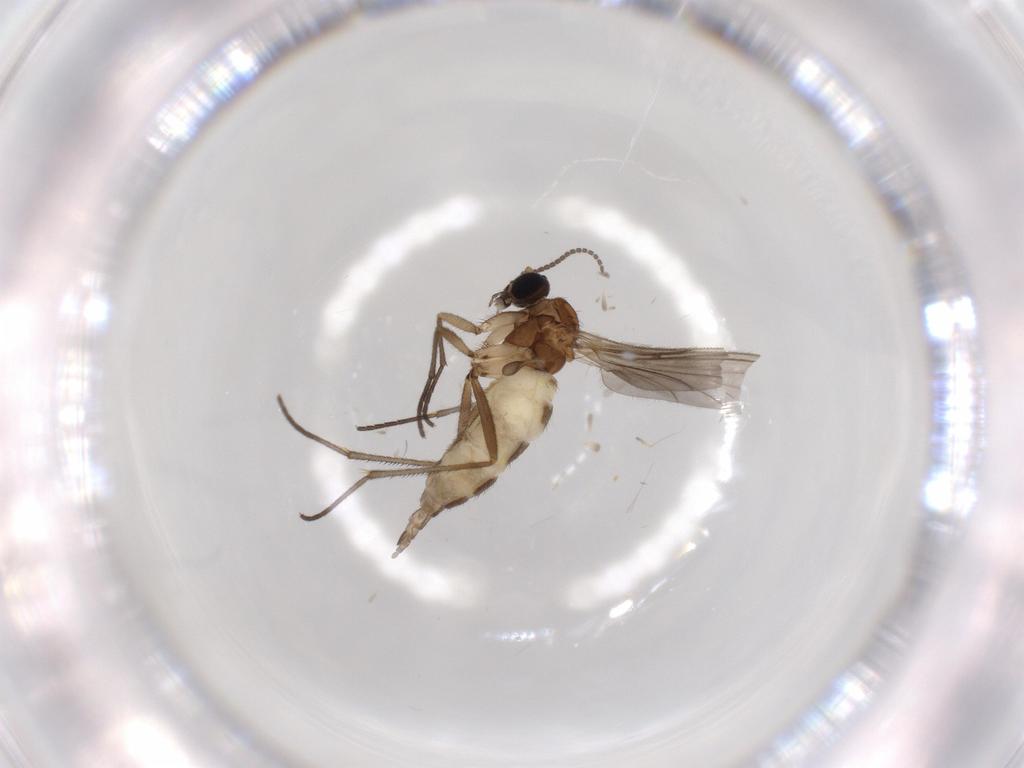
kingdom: Animalia
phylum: Arthropoda
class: Insecta
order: Diptera
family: Sciaridae
